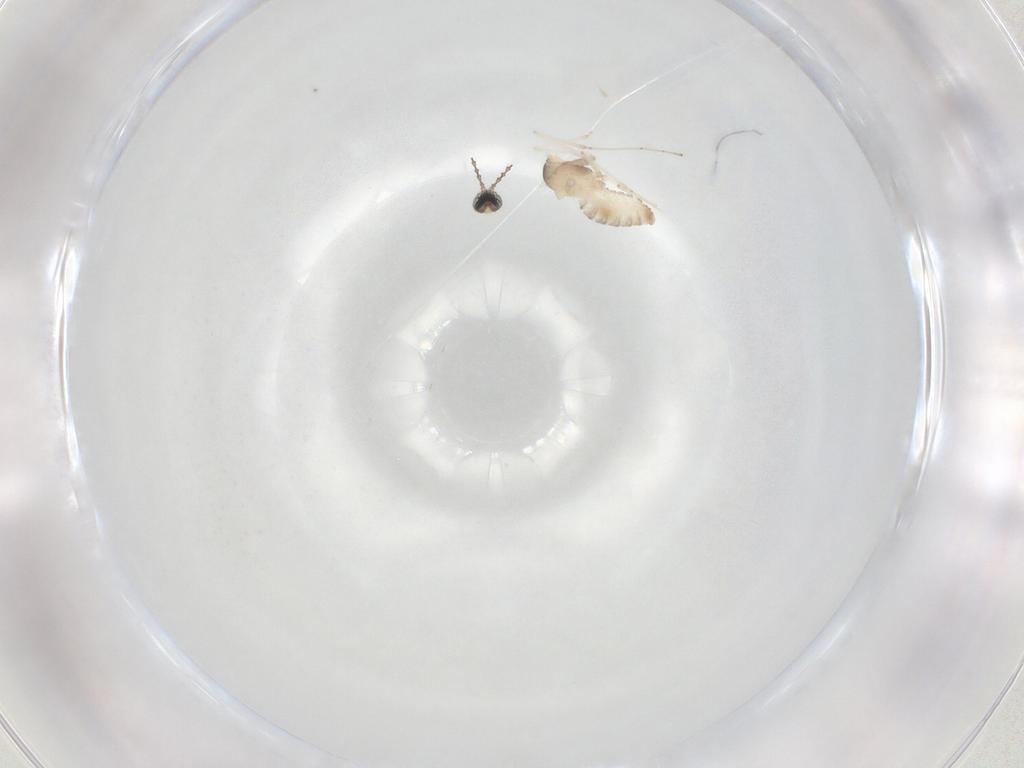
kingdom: Animalia
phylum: Arthropoda
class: Insecta
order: Diptera
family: Cecidomyiidae
